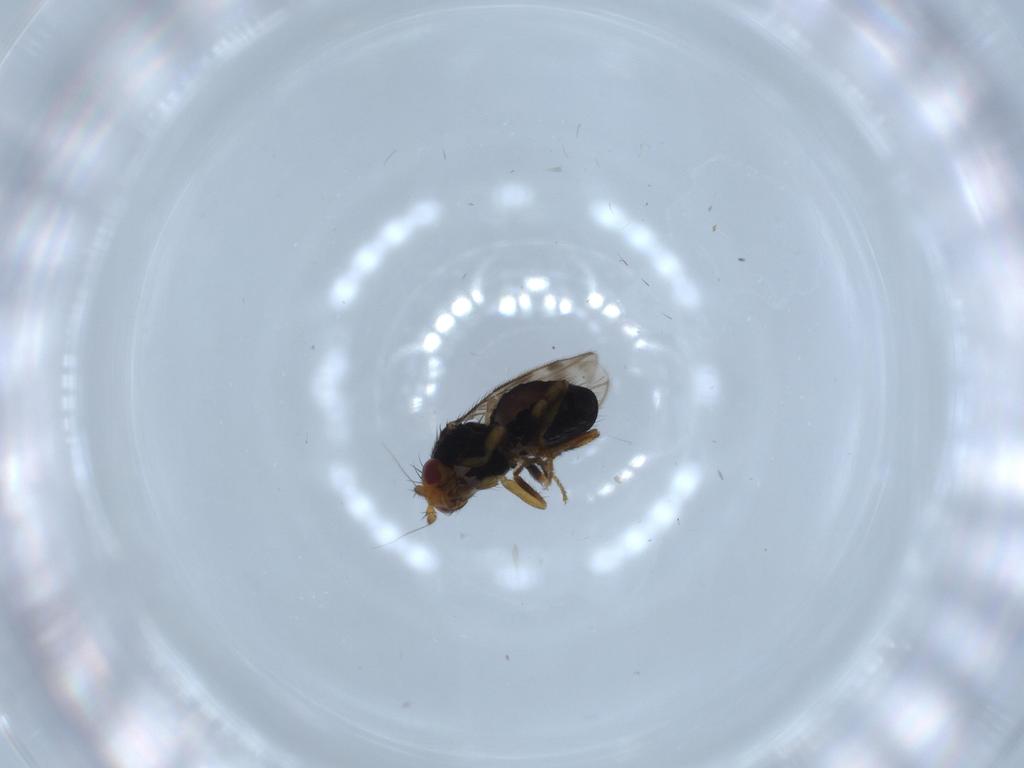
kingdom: Animalia
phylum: Arthropoda
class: Insecta
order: Diptera
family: Sphaeroceridae
